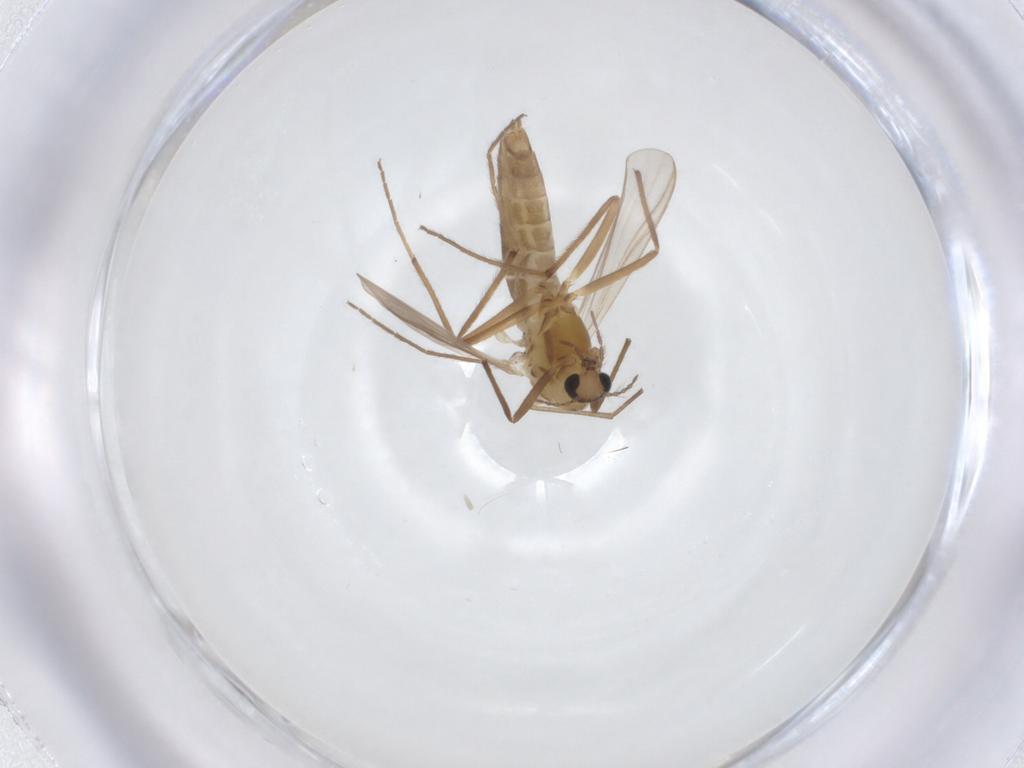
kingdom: Animalia
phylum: Arthropoda
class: Insecta
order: Diptera
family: Chironomidae
